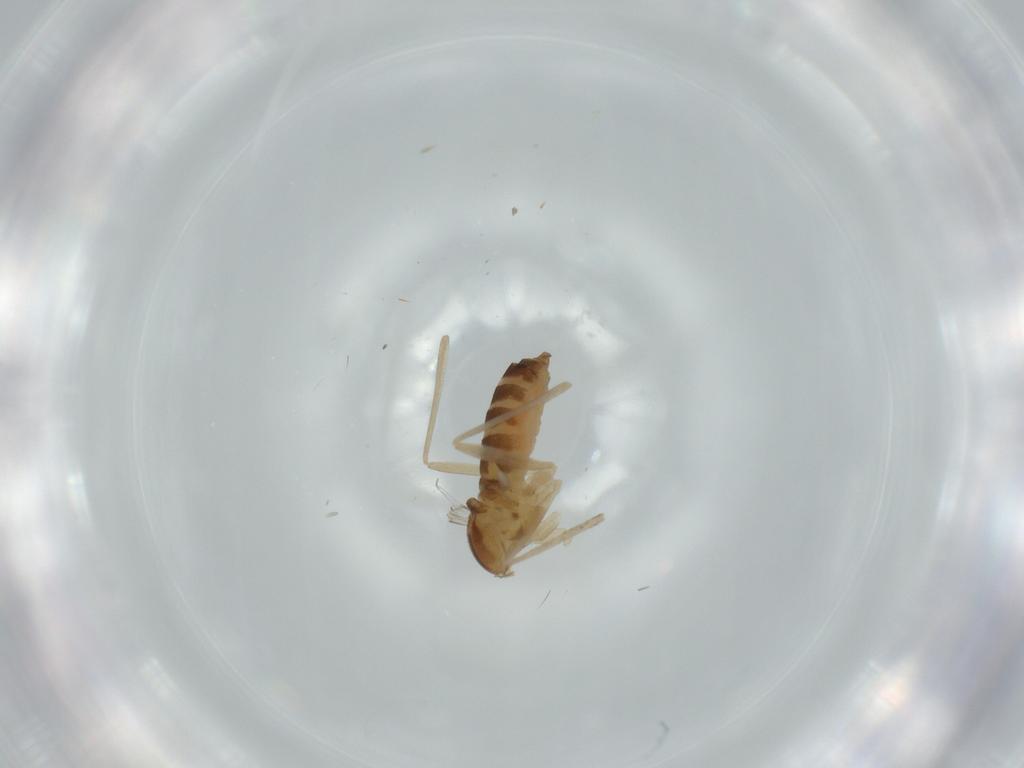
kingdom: Animalia
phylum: Arthropoda
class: Insecta
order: Diptera
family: Cecidomyiidae
